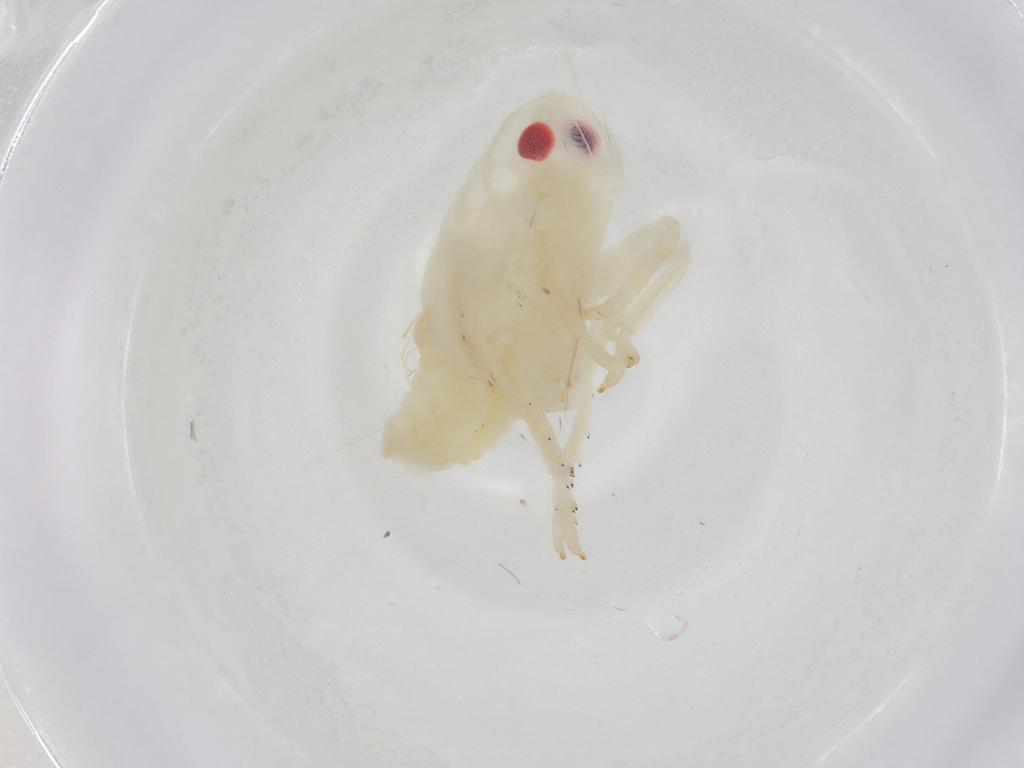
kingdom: Animalia
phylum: Arthropoda
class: Insecta
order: Hemiptera
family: Flatidae
